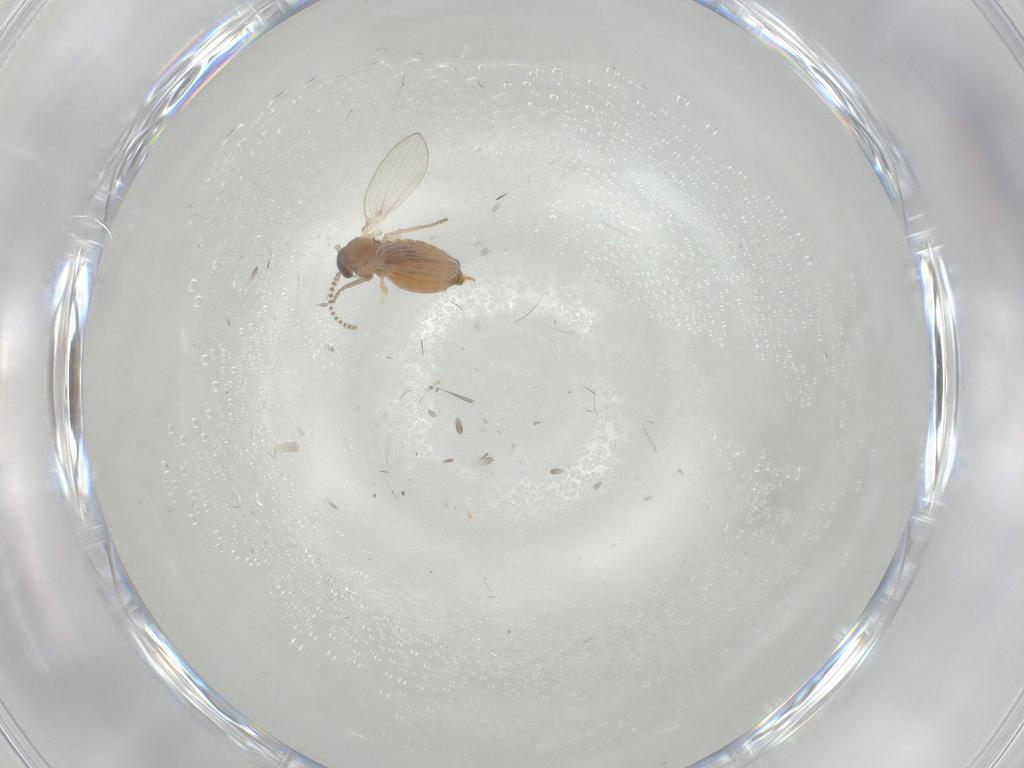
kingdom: Animalia
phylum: Arthropoda
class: Insecta
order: Diptera
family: Psychodidae
